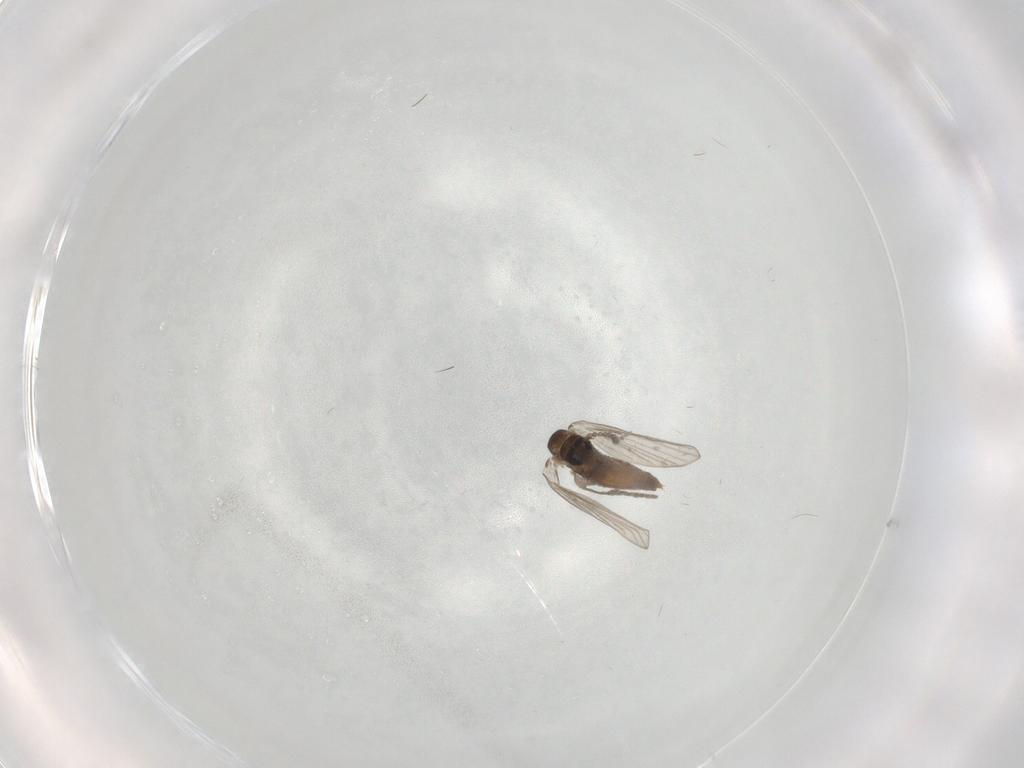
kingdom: Animalia
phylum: Arthropoda
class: Insecta
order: Diptera
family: Psychodidae
